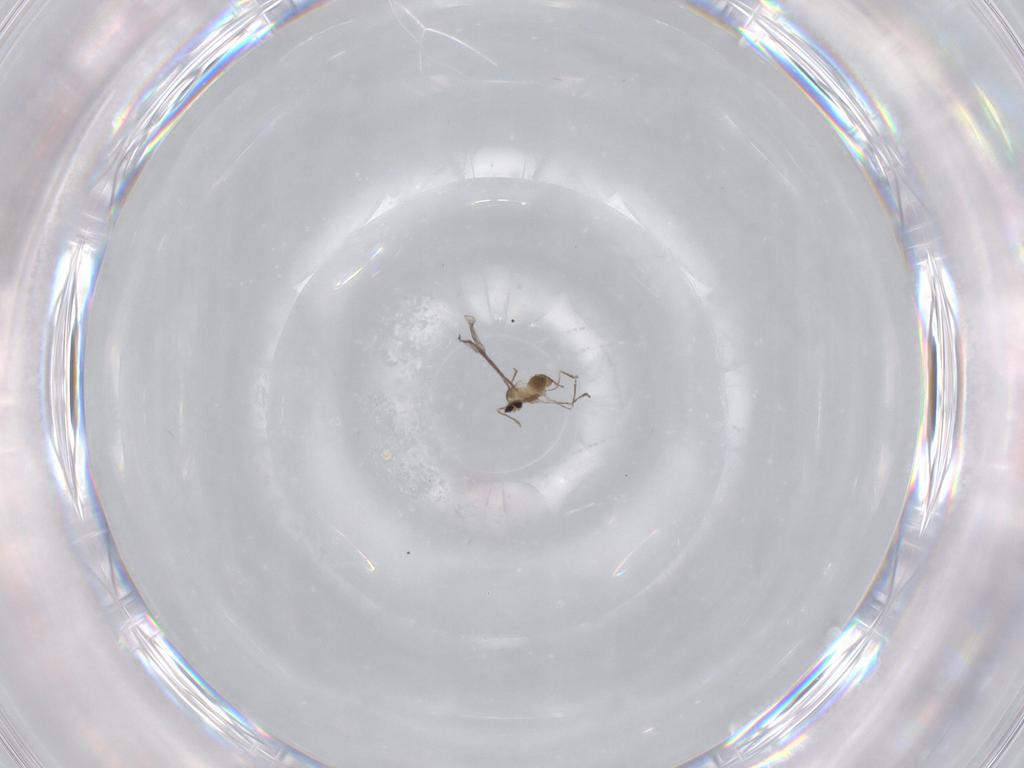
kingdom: Animalia
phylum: Arthropoda
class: Insecta
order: Diptera
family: Cecidomyiidae
